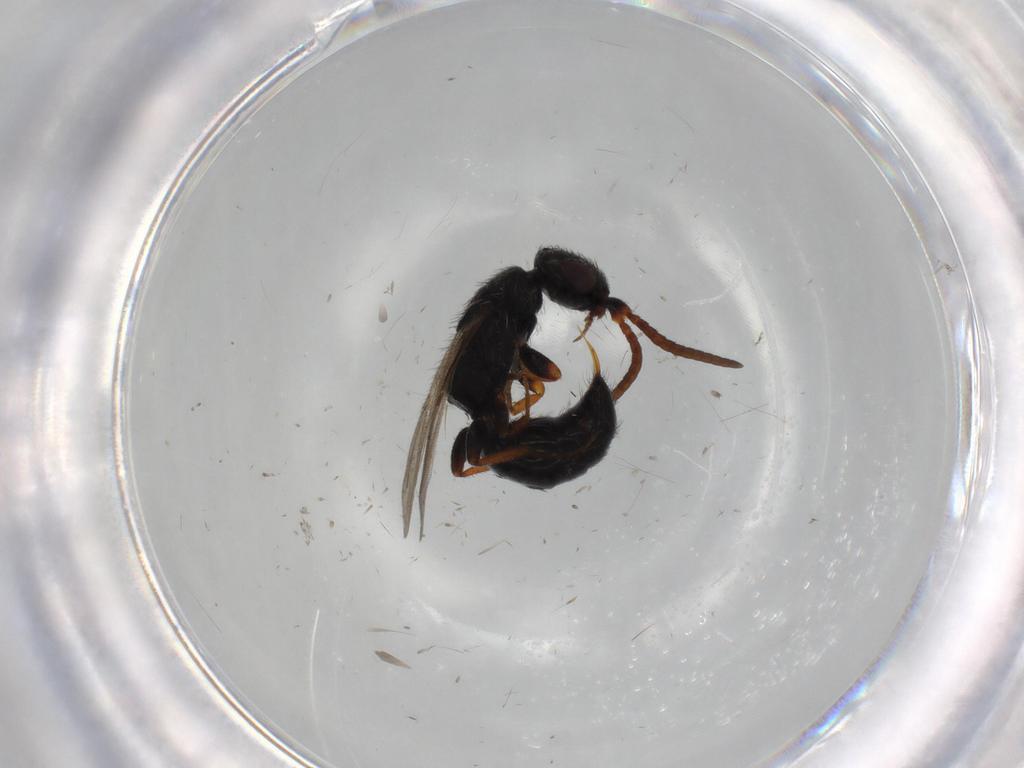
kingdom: Animalia
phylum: Arthropoda
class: Insecta
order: Hymenoptera
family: Bethylidae
